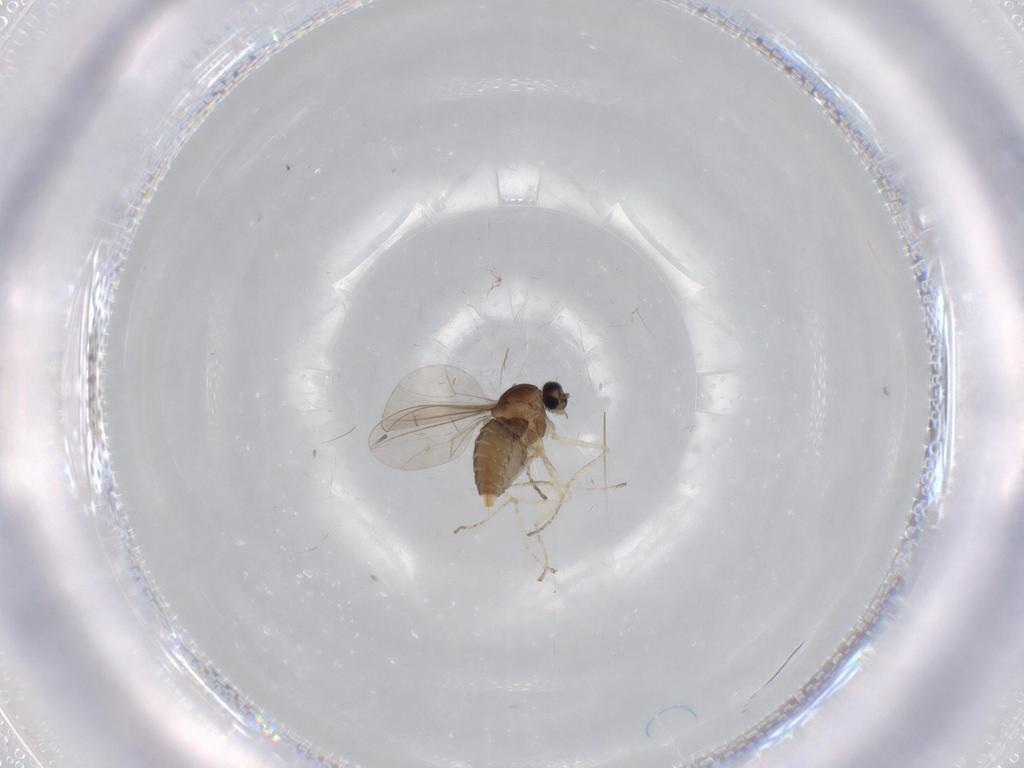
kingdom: Animalia
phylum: Arthropoda
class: Insecta
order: Diptera
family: Cecidomyiidae
